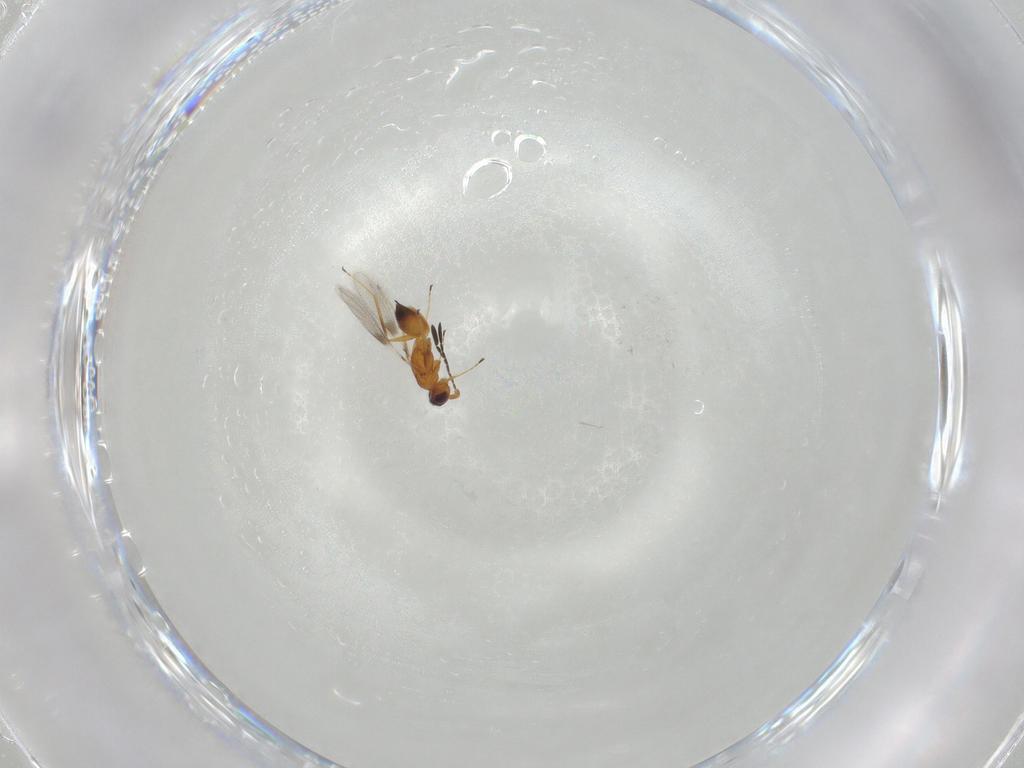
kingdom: Animalia
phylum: Arthropoda
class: Insecta
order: Hymenoptera
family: Mymaridae
